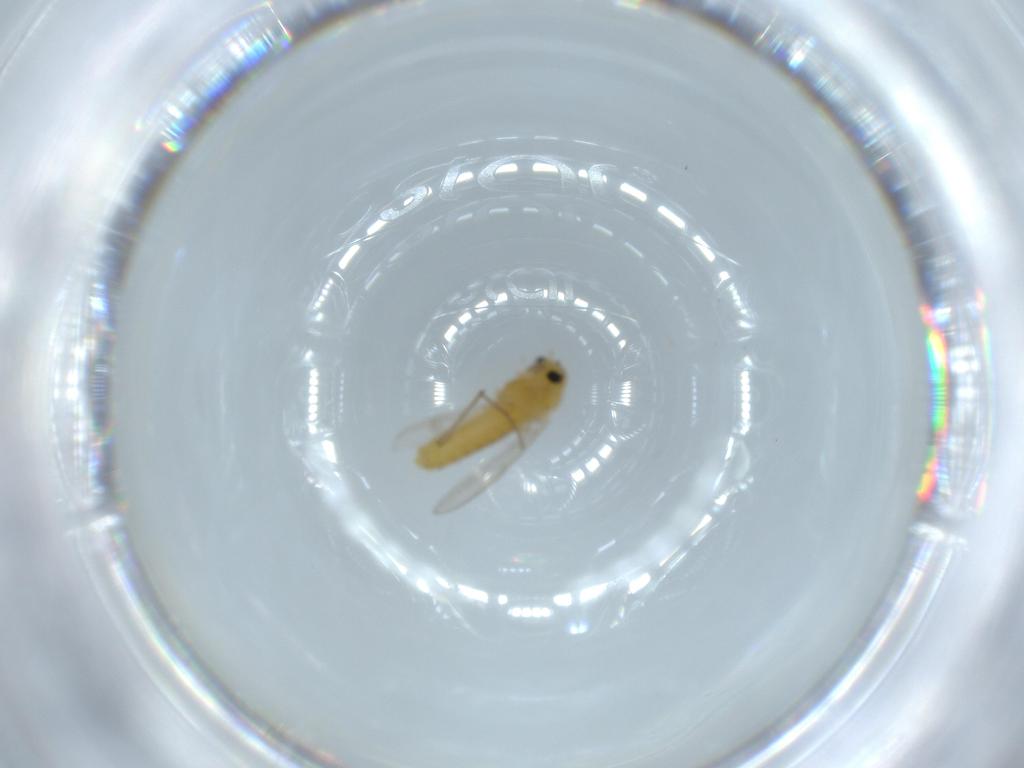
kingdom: Animalia
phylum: Arthropoda
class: Insecta
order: Diptera
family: Chironomidae
